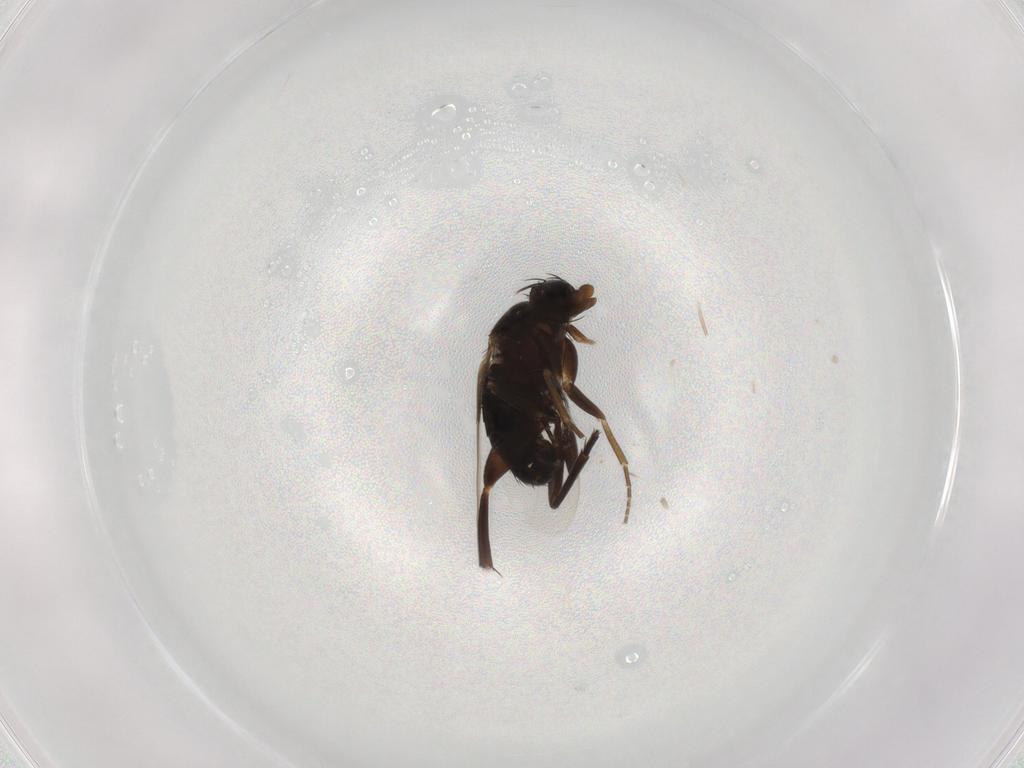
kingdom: Animalia
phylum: Arthropoda
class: Insecta
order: Diptera
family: Phoridae
